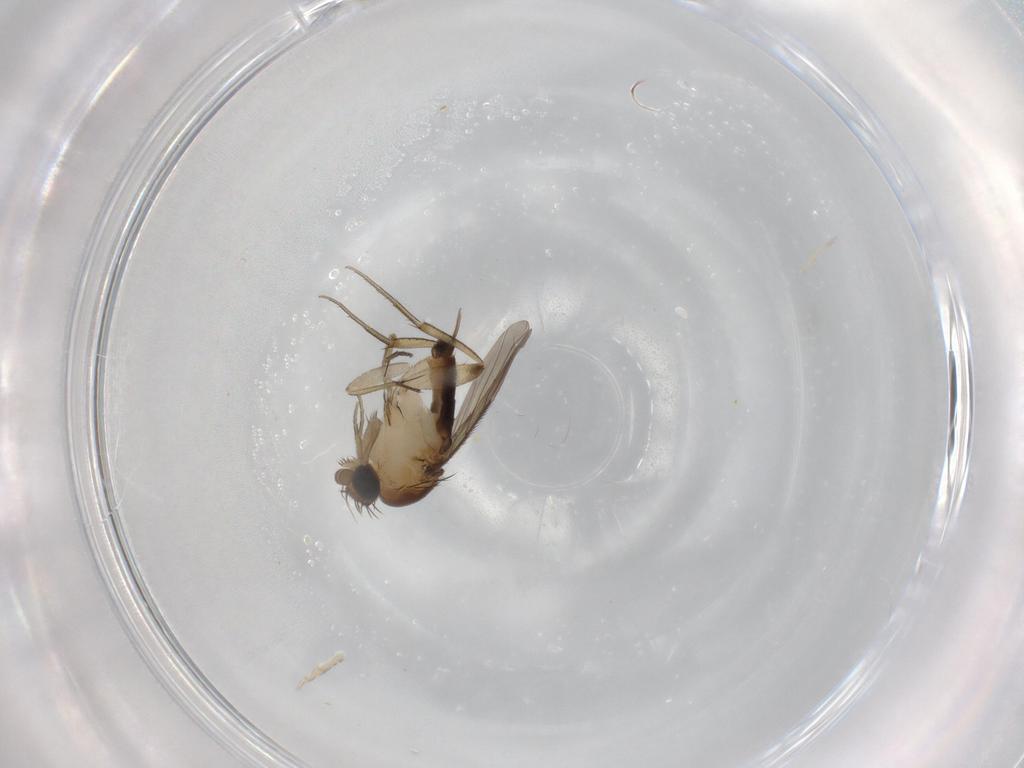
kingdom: Animalia
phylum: Arthropoda
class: Insecta
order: Diptera
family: Phoridae
